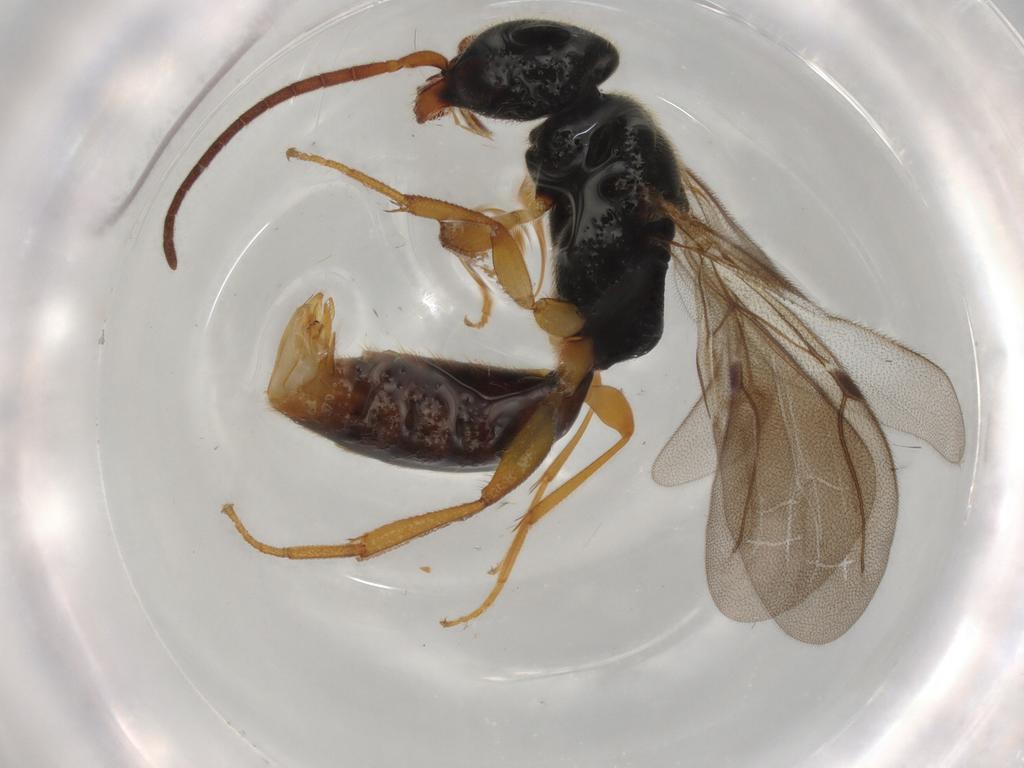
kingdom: Animalia
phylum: Arthropoda
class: Insecta
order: Hymenoptera
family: Bethylidae
